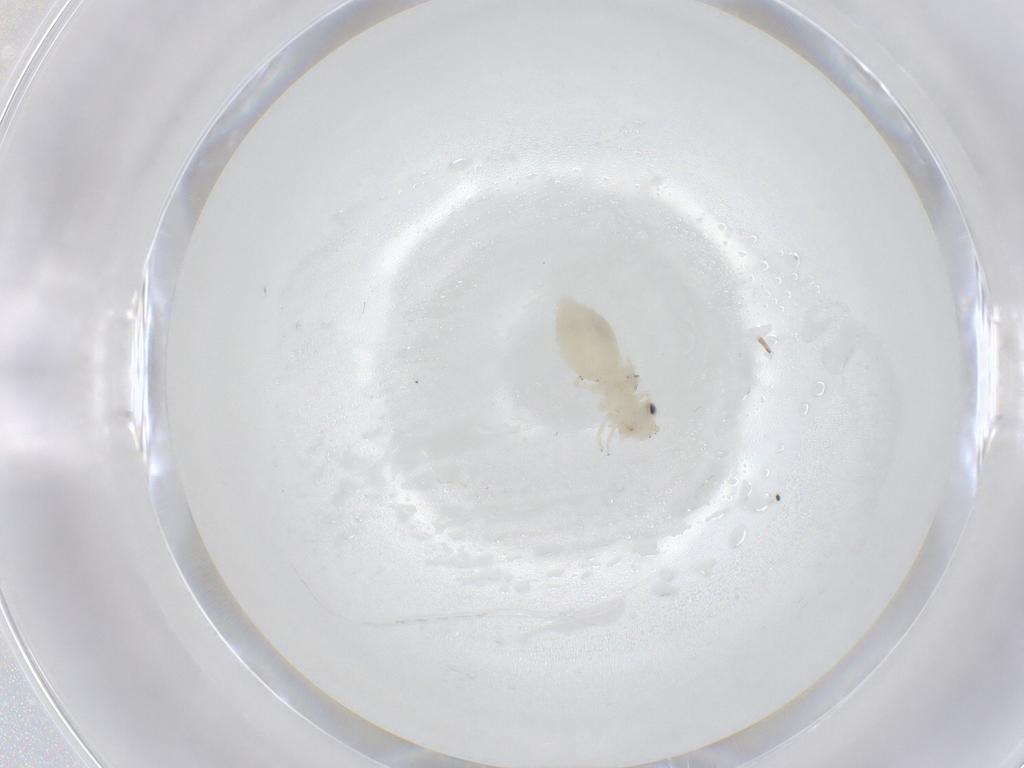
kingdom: Animalia
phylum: Arthropoda
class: Insecta
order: Psocodea
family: Caeciliusidae
